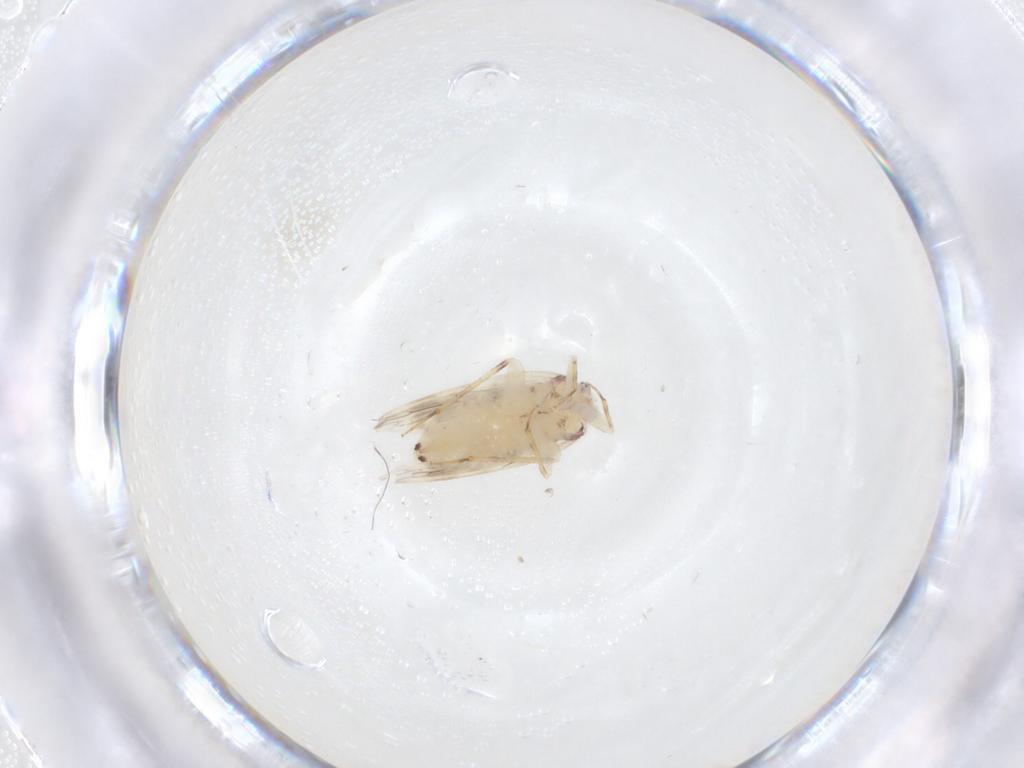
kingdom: Animalia
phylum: Arthropoda
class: Insecta
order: Psocodea
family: Lepidopsocidae
